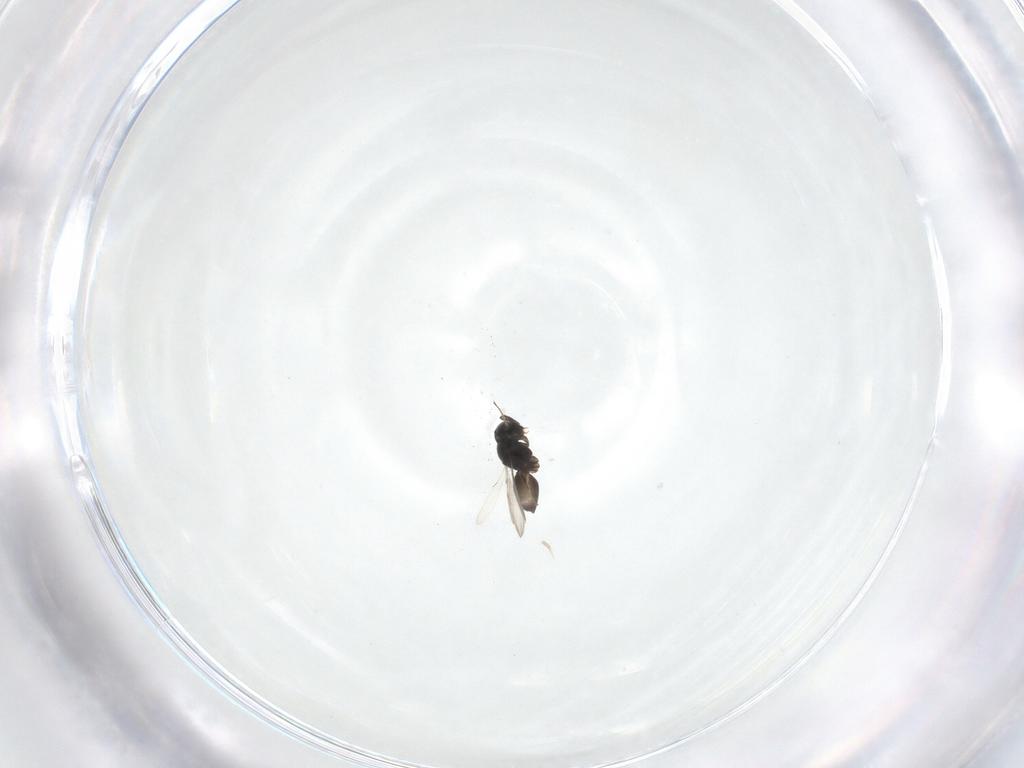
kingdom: Animalia
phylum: Arthropoda
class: Insecta
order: Hymenoptera
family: Scelionidae
